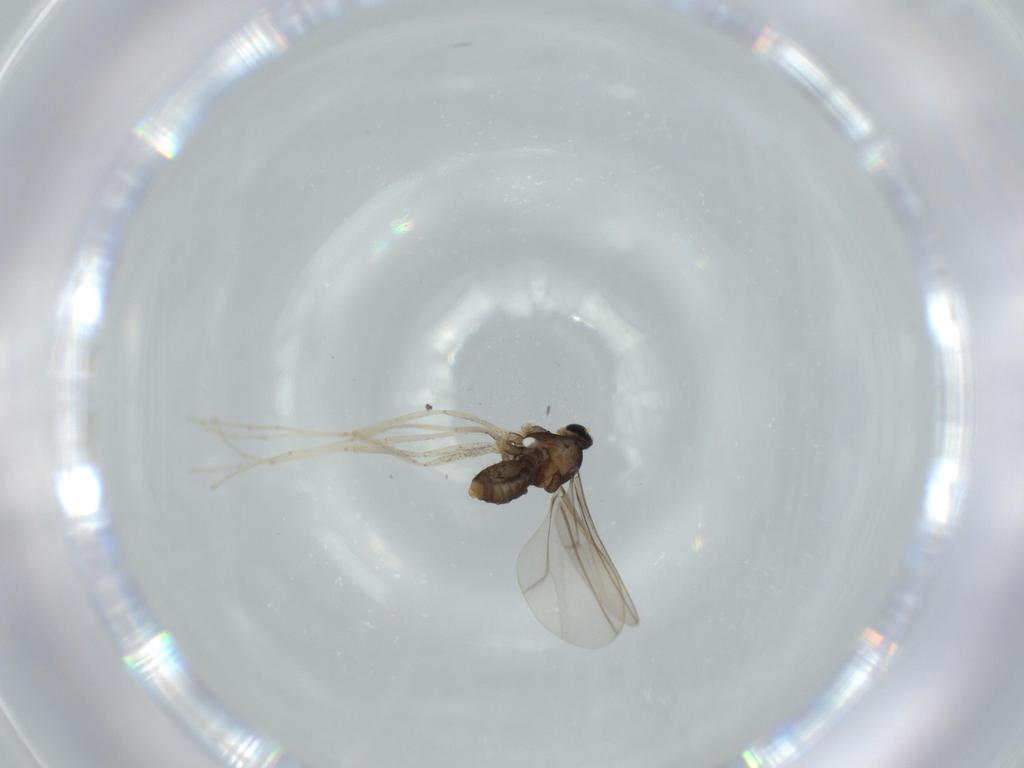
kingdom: Animalia
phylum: Arthropoda
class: Insecta
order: Diptera
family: Cecidomyiidae
